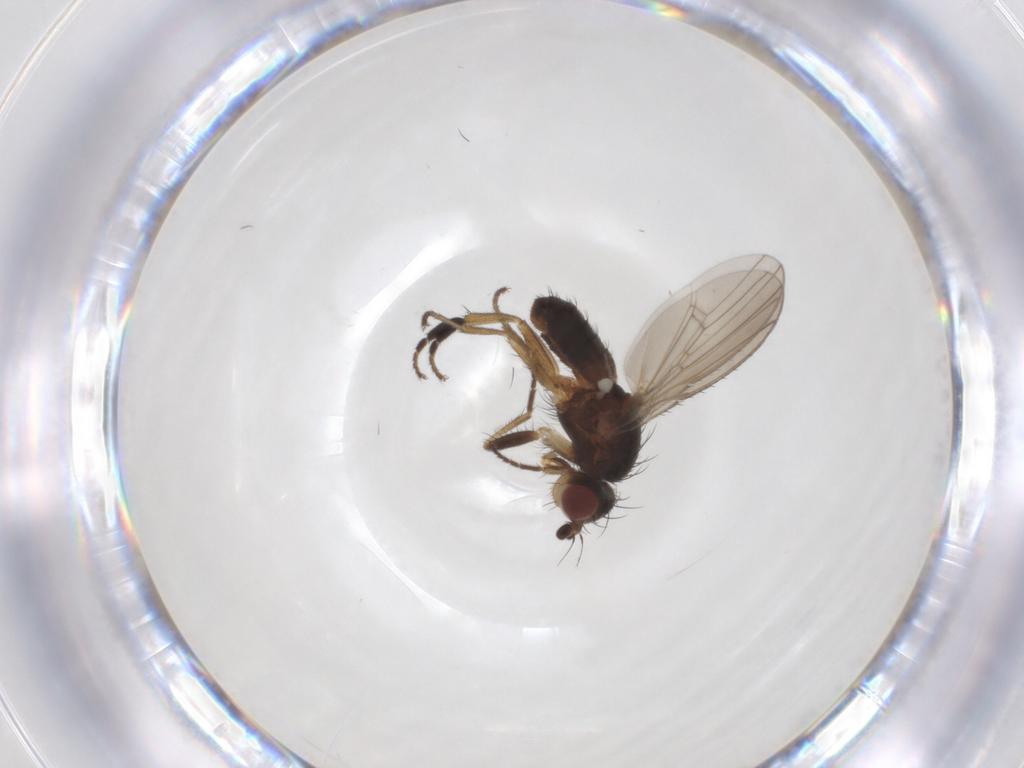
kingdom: Animalia
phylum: Arthropoda
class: Insecta
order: Diptera
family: Heleomyzidae
